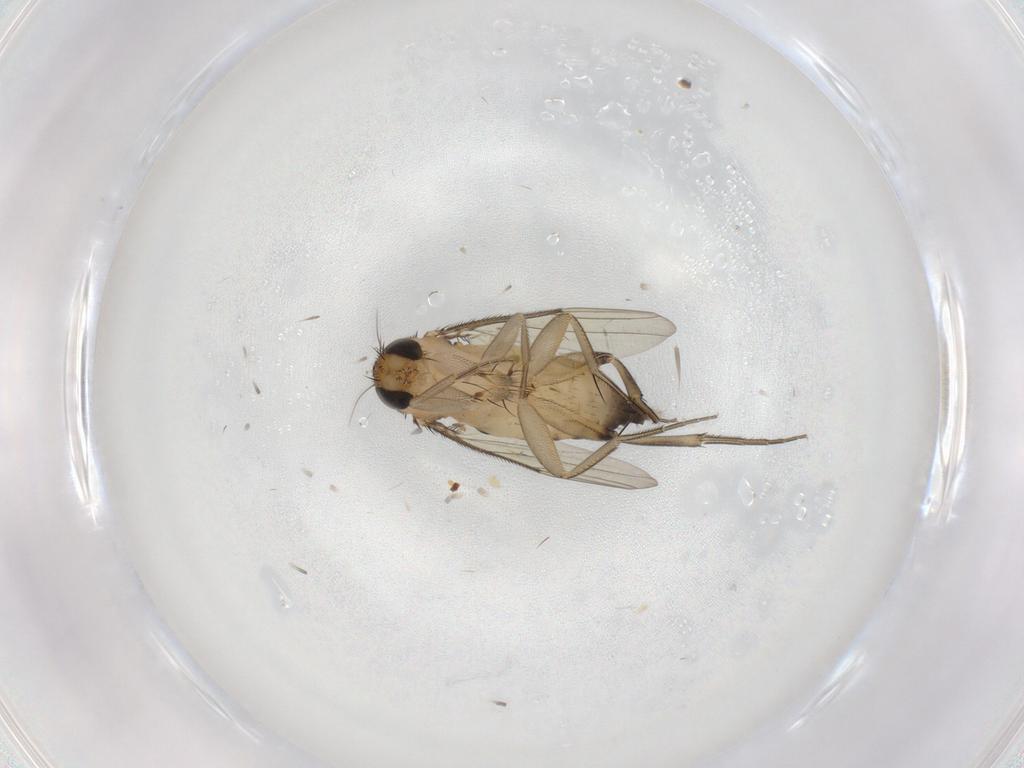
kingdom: Animalia
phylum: Arthropoda
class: Insecta
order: Diptera
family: Phoridae
